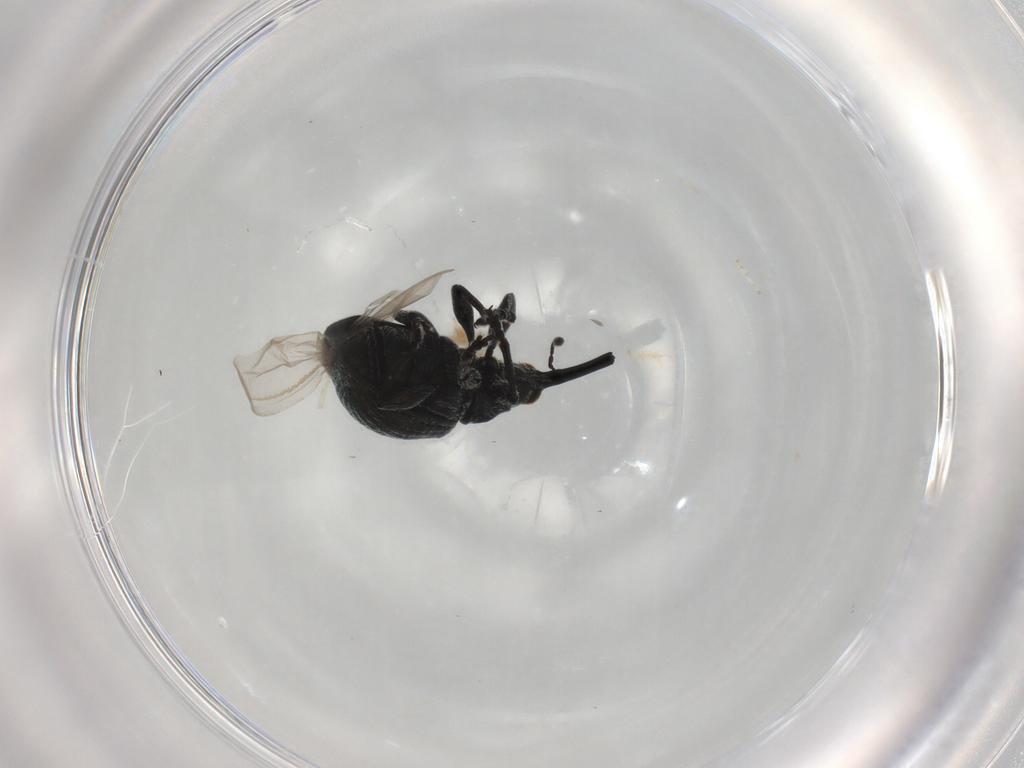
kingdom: Animalia
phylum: Arthropoda
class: Insecta
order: Coleoptera
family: Brentidae
